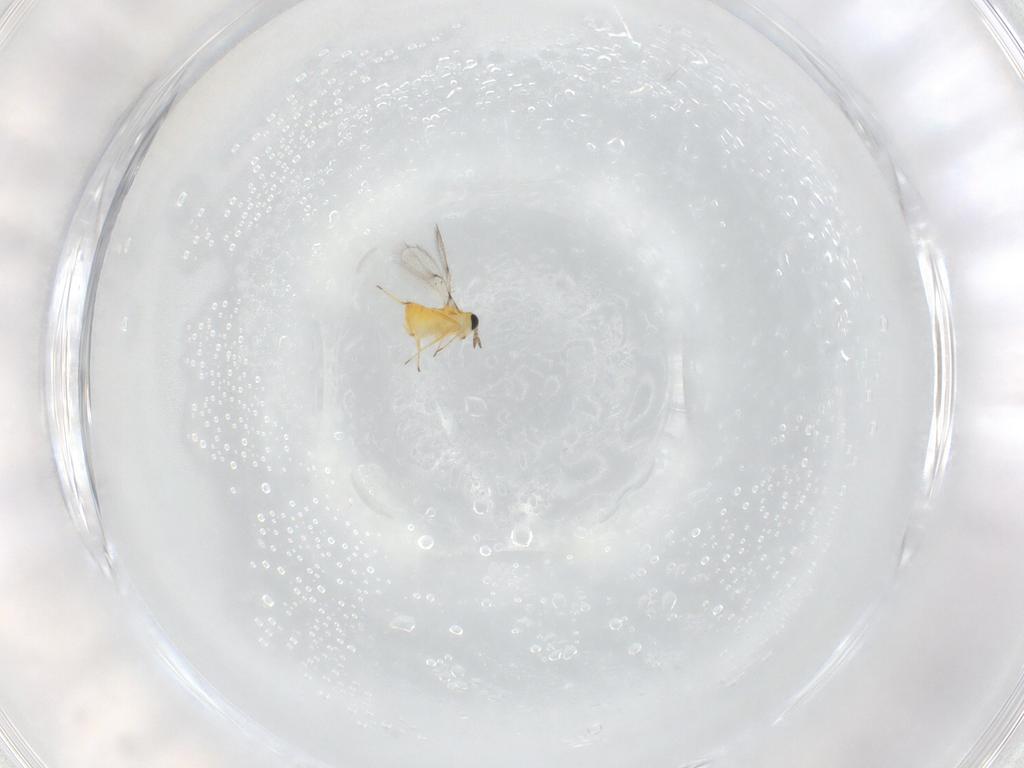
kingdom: Animalia
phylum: Arthropoda
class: Insecta
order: Hymenoptera
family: Trichogrammatidae
